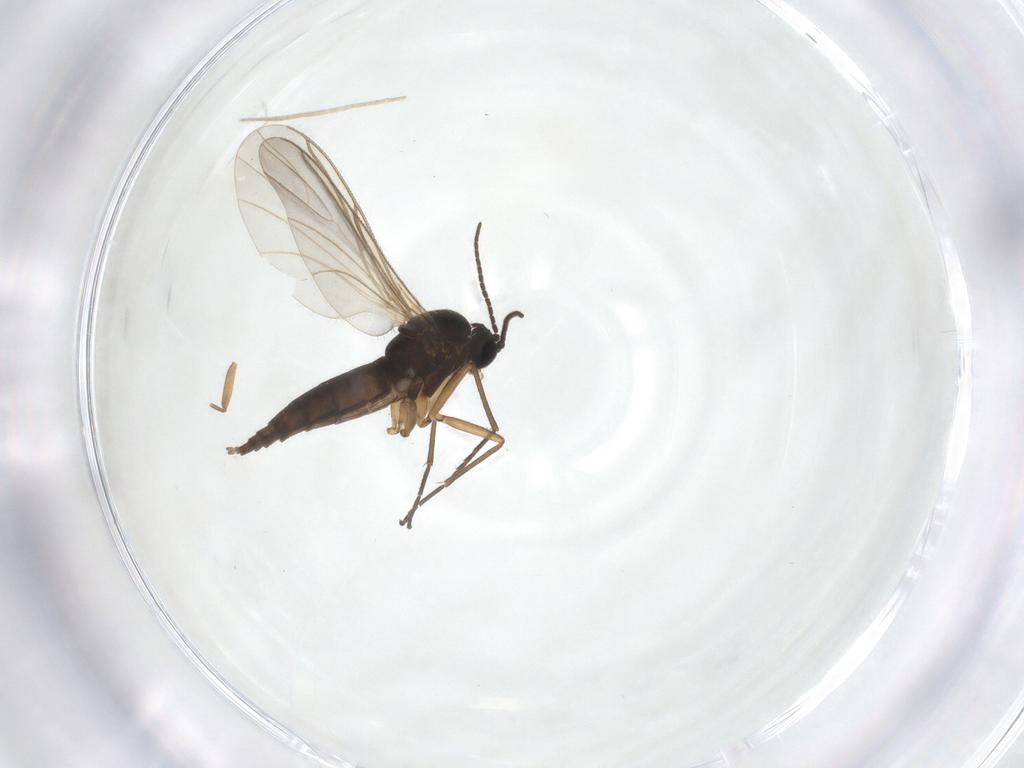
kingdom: Animalia
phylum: Arthropoda
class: Insecta
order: Diptera
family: Sciaridae
